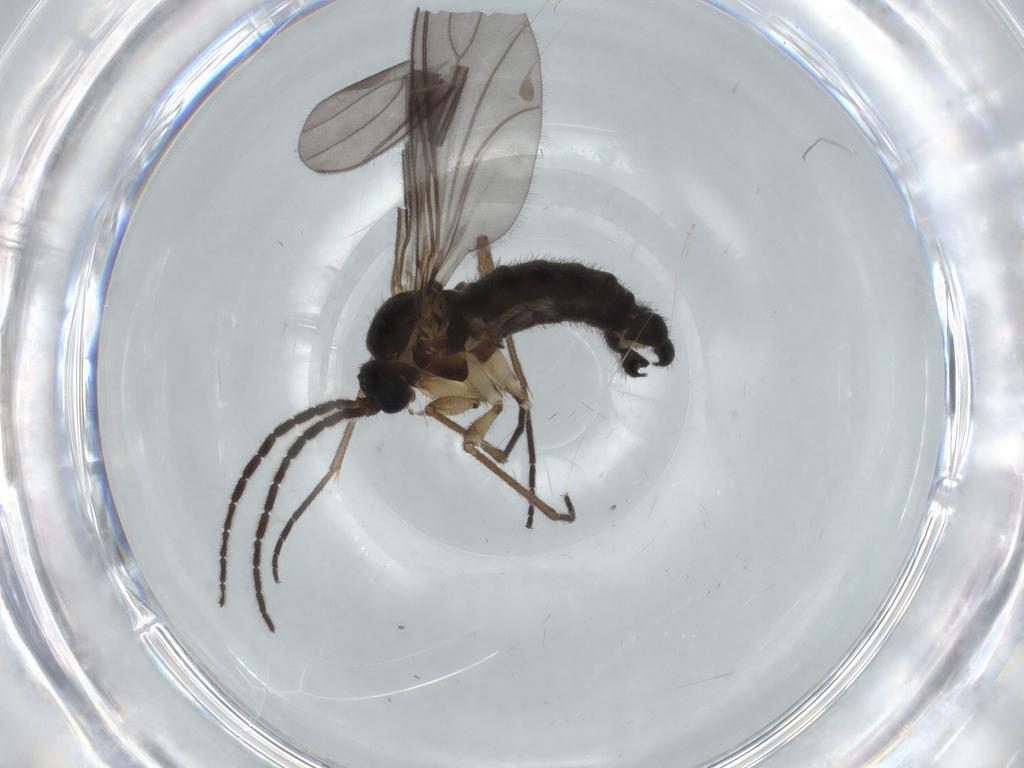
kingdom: Animalia
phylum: Arthropoda
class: Insecta
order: Diptera
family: Sciaridae
